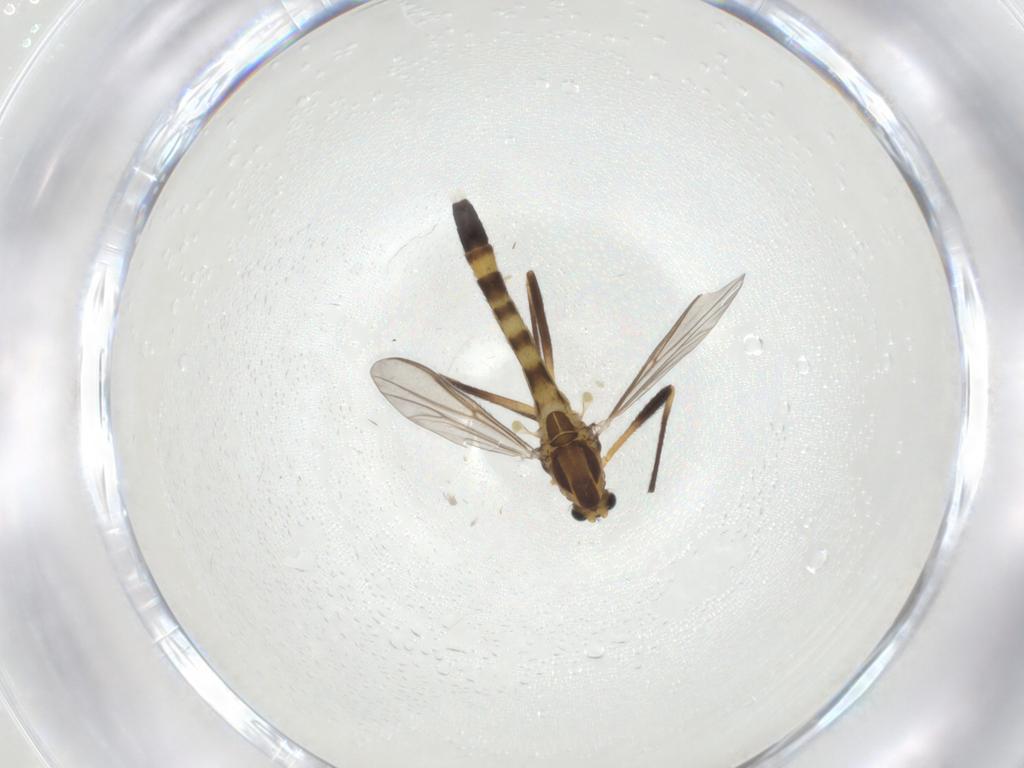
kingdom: Animalia
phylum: Arthropoda
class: Insecta
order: Diptera
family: Chironomidae
